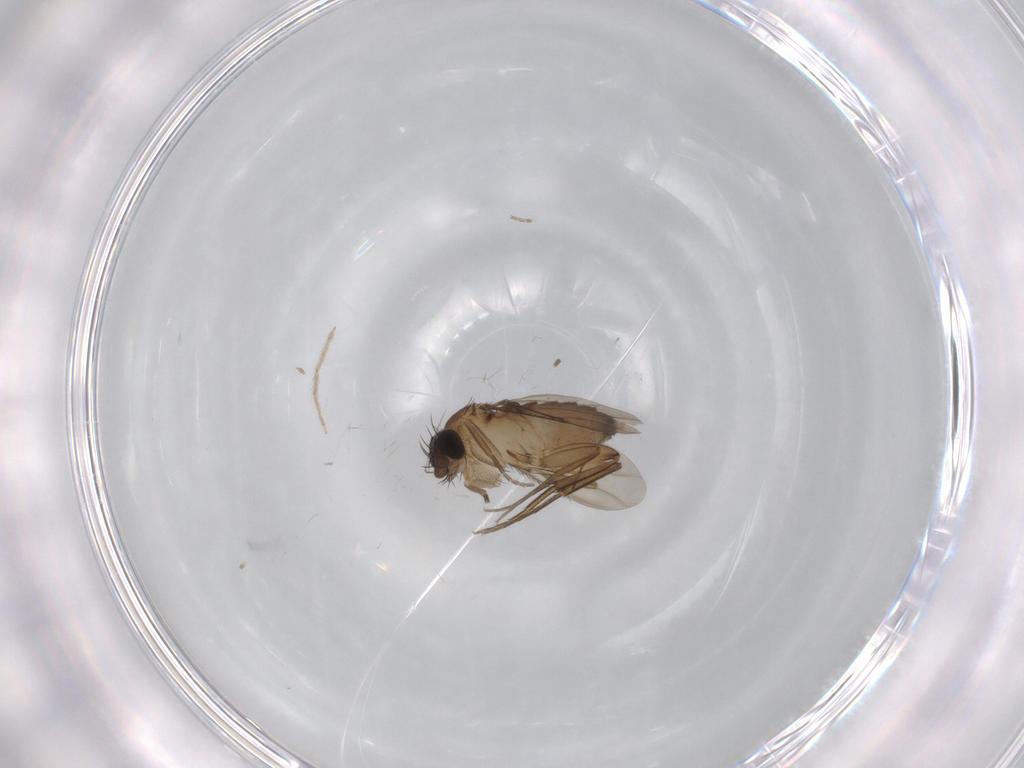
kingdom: Animalia
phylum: Arthropoda
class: Insecta
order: Diptera
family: Phoridae
